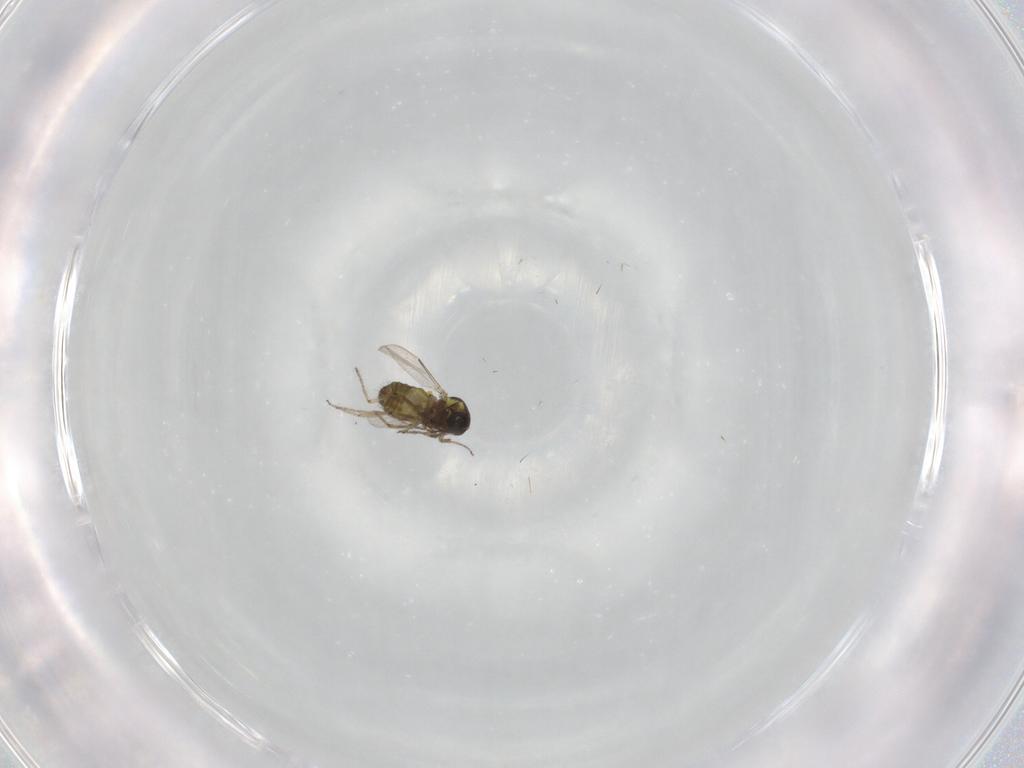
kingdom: Animalia
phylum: Arthropoda
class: Insecta
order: Diptera
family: Ceratopogonidae
